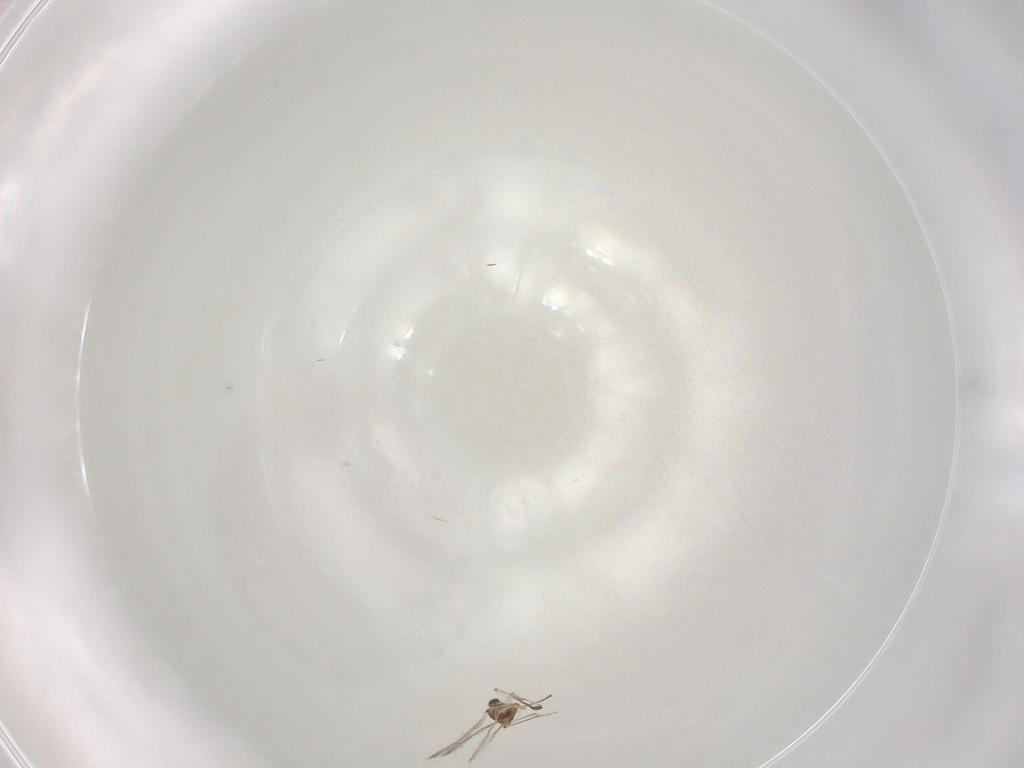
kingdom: Animalia
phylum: Arthropoda
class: Insecta
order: Hymenoptera
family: Mymaridae
